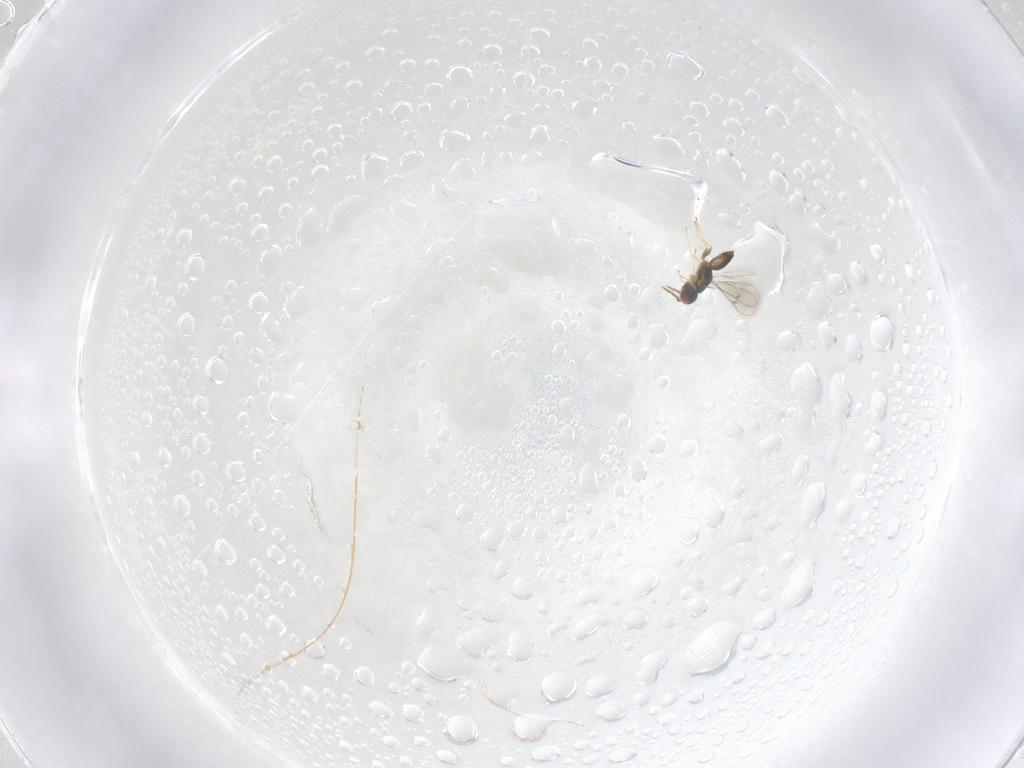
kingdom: Animalia
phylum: Arthropoda
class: Insecta
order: Hymenoptera
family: Eulophidae
